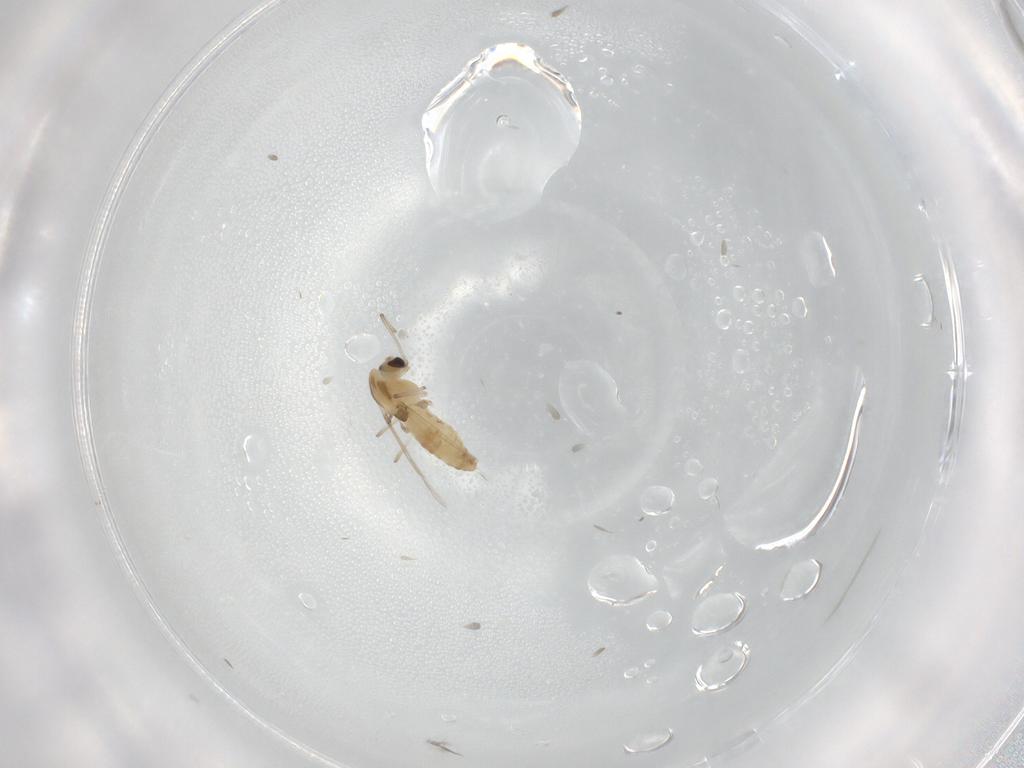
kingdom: Animalia
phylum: Arthropoda
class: Insecta
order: Diptera
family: Chironomidae
